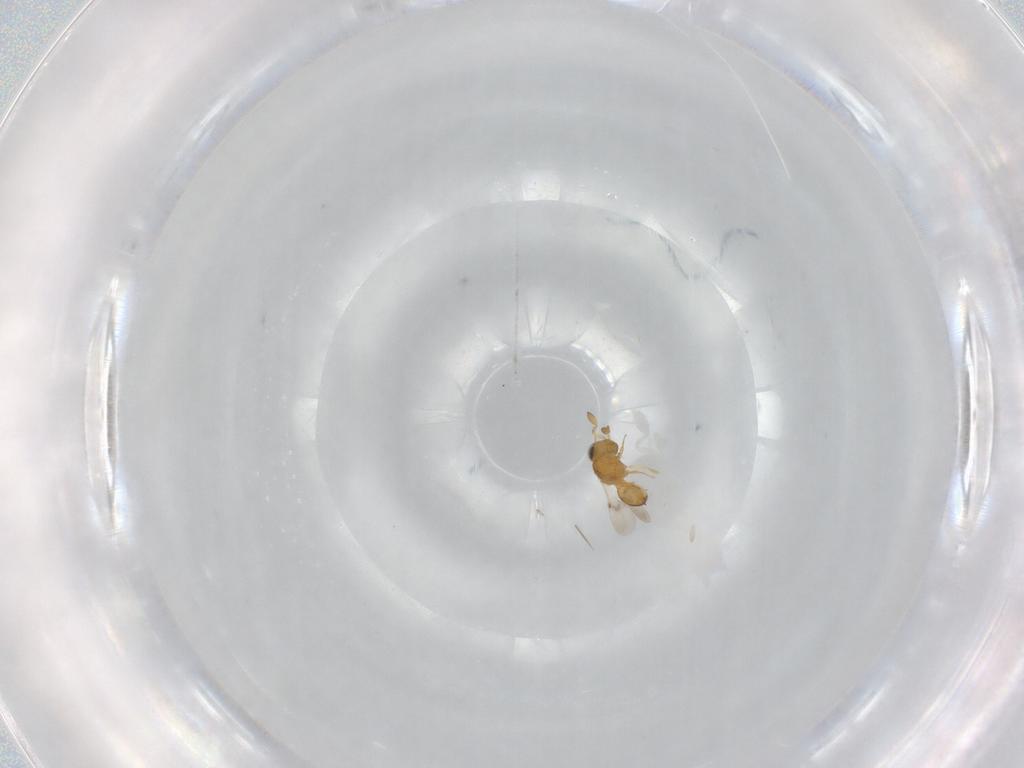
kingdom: Animalia
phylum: Arthropoda
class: Insecta
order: Hymenoptera
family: Scelionidae
